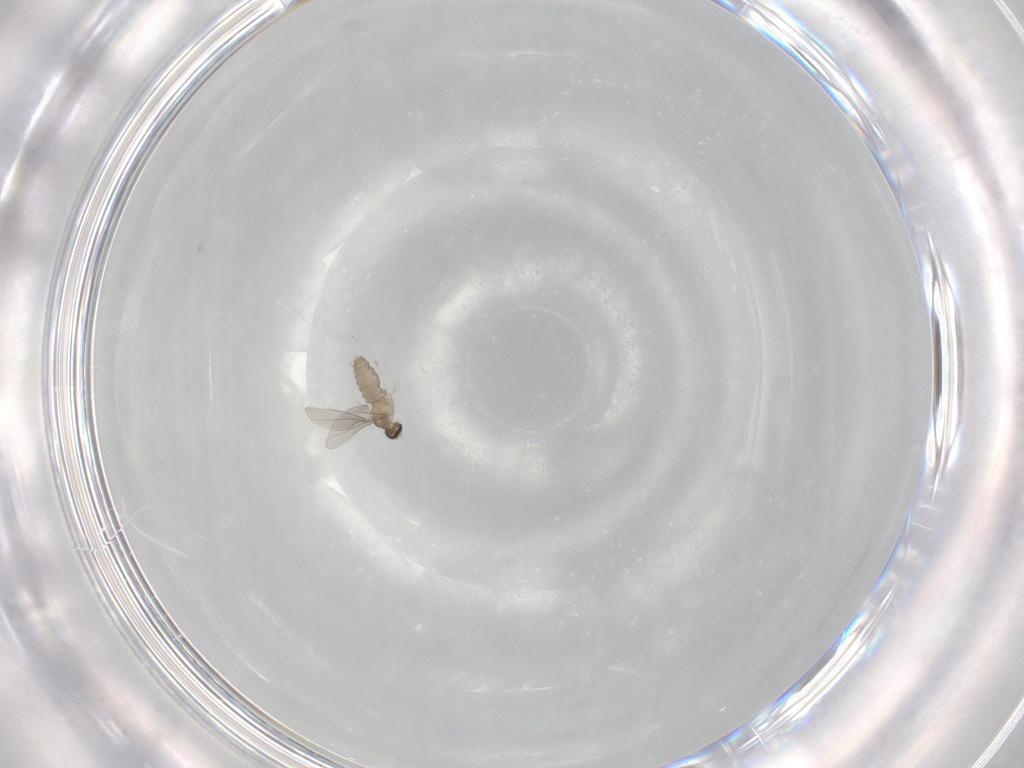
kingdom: Animalia
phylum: Arthropoda
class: Insecta
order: Diptera
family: Cecidomyiidae
